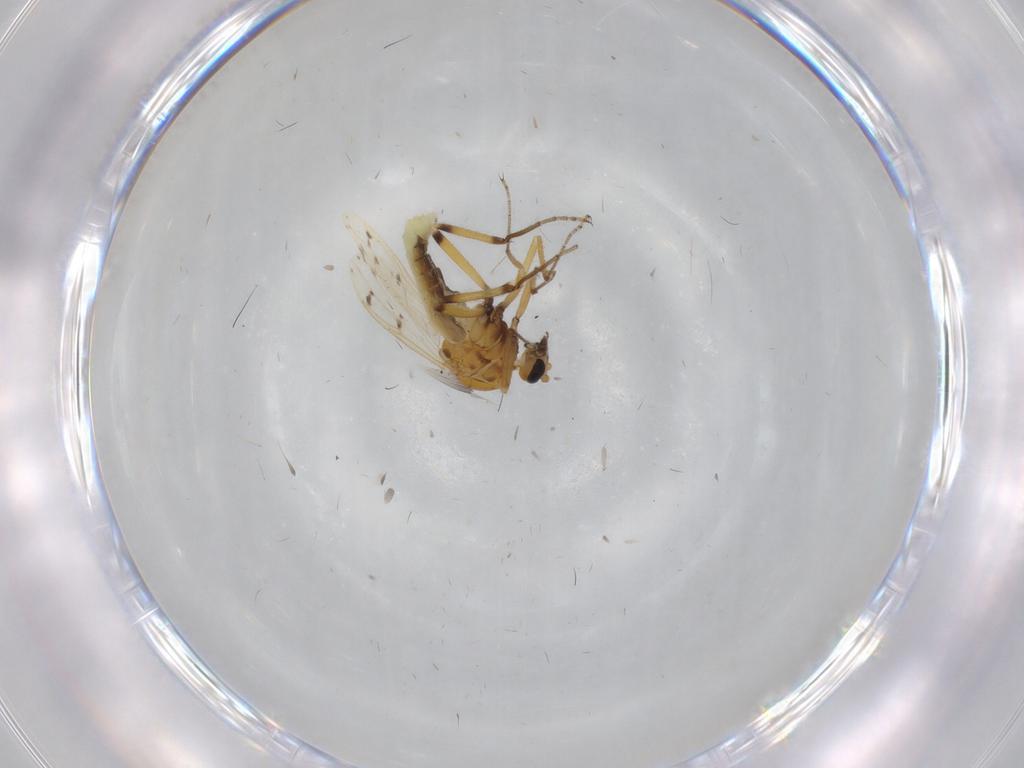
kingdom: Animalia
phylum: Arthropoda
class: Insecta
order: Diptera
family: Ceratopogonidae
